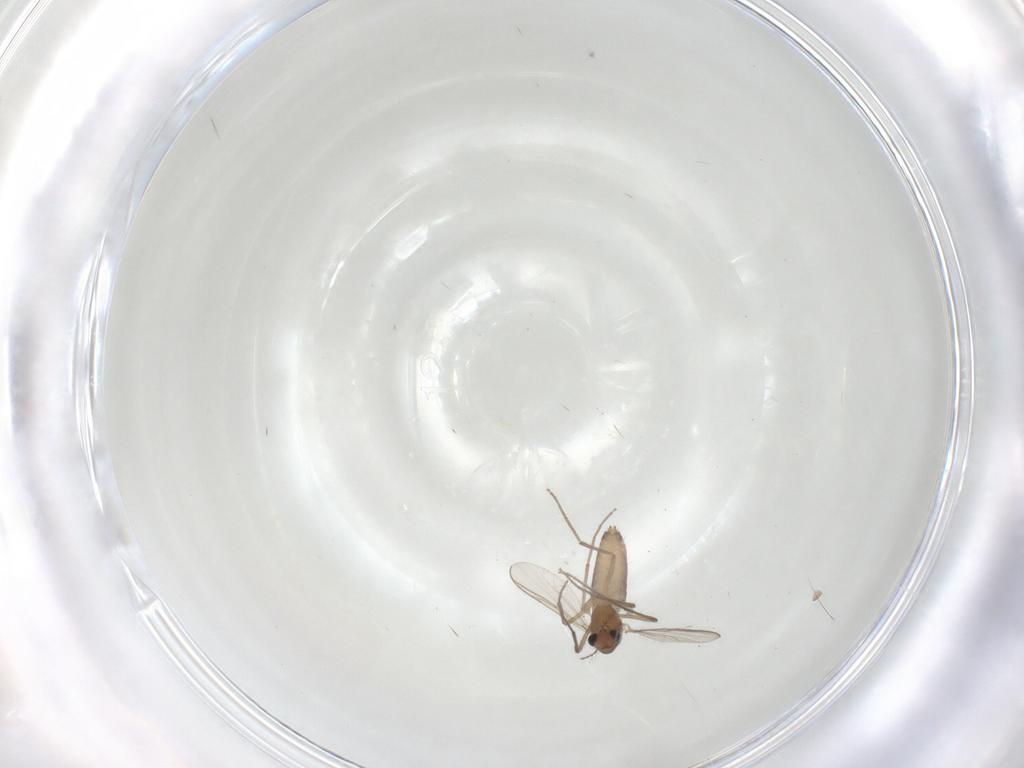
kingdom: Animalia
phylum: Arthropoda
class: Insecta
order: Diptera
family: Chironomidae
